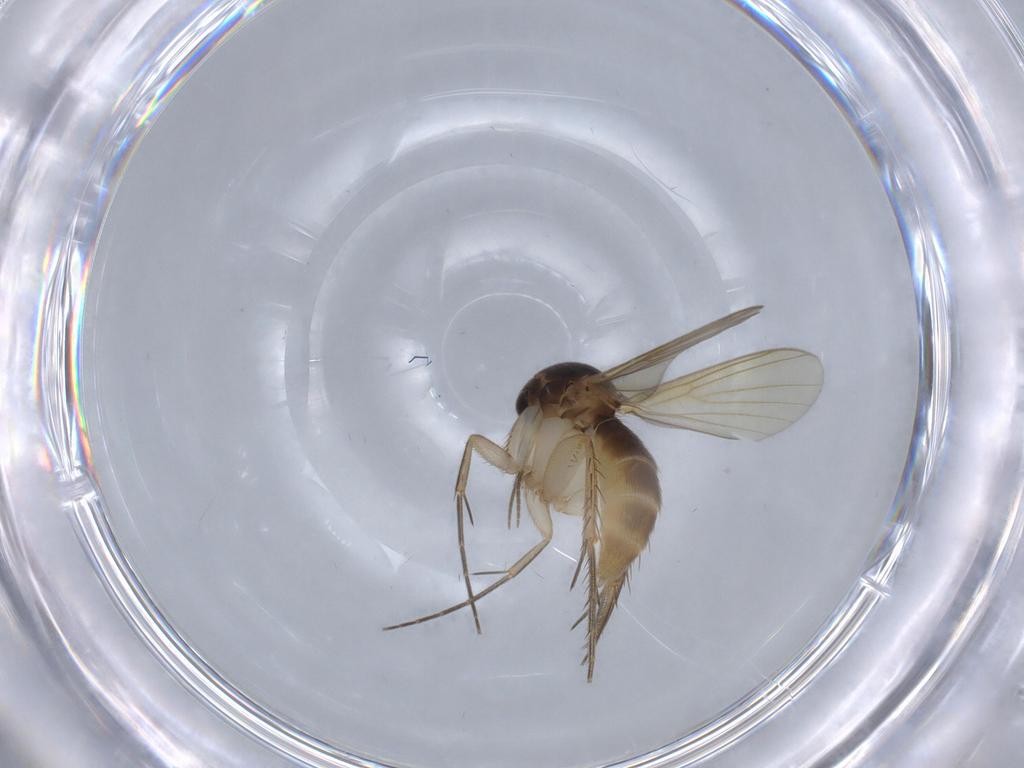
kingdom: Animalia
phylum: Arthropoda
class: Insecta
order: Diptera
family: Mycetophilidae
